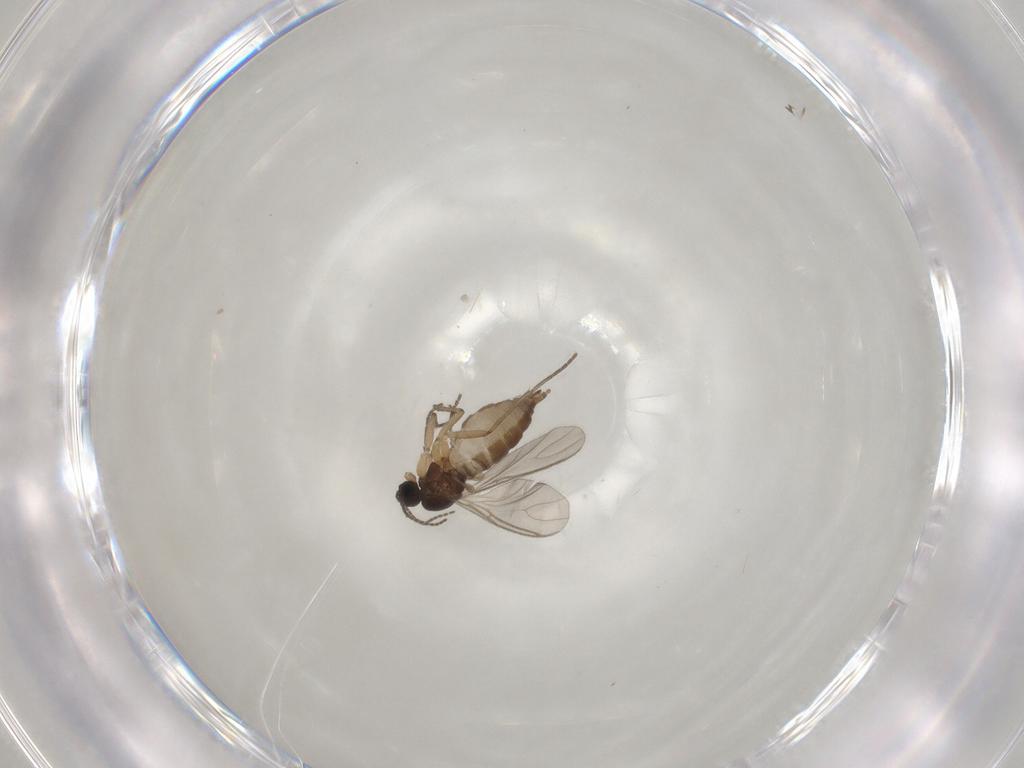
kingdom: Animalia
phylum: Arthropoda
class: Insecta
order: Diptera
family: Sciaridae
